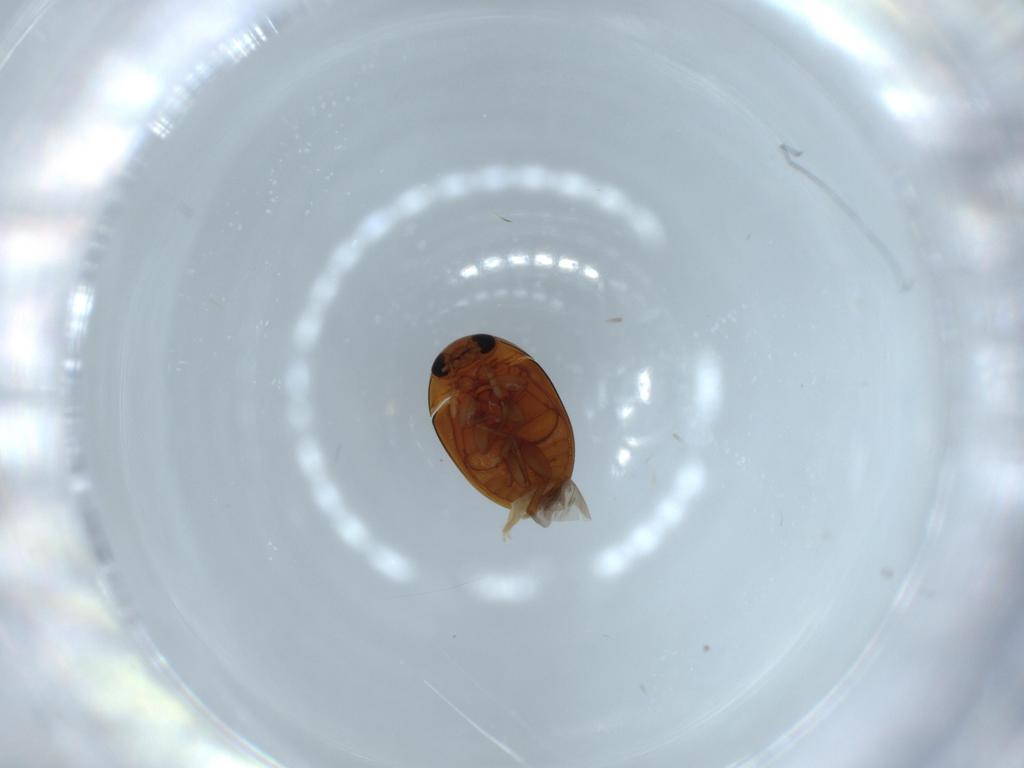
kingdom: Animalia
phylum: Arthropoda
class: Insecta
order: Coleoptera
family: Phalacridae
